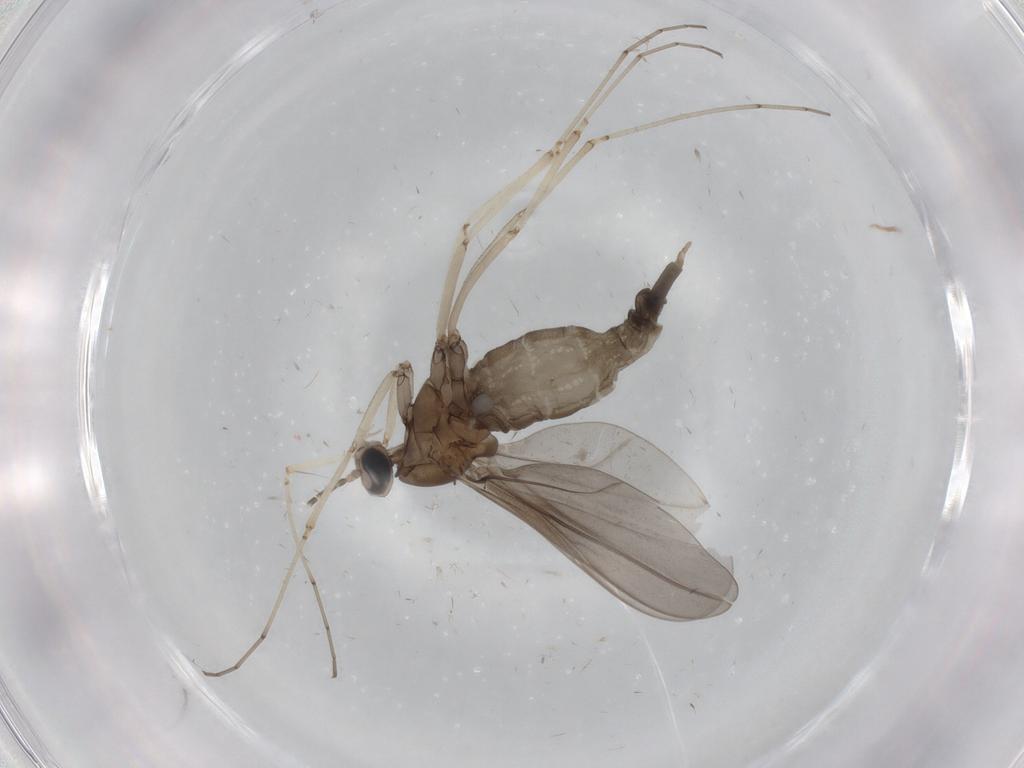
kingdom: Animalia
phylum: Arthropoda
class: Insecta
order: Diptera
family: Cecidomyiidae
